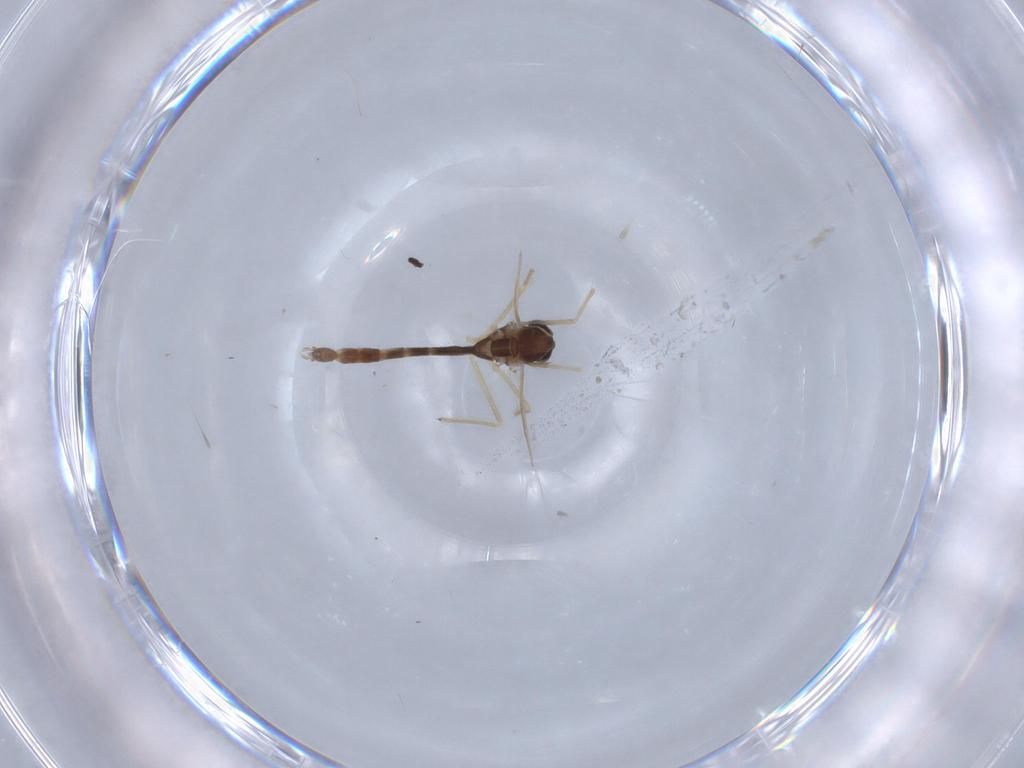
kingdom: Animalia
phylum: Arthropoda
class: Insecta
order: Diptera
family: Chironomidae
